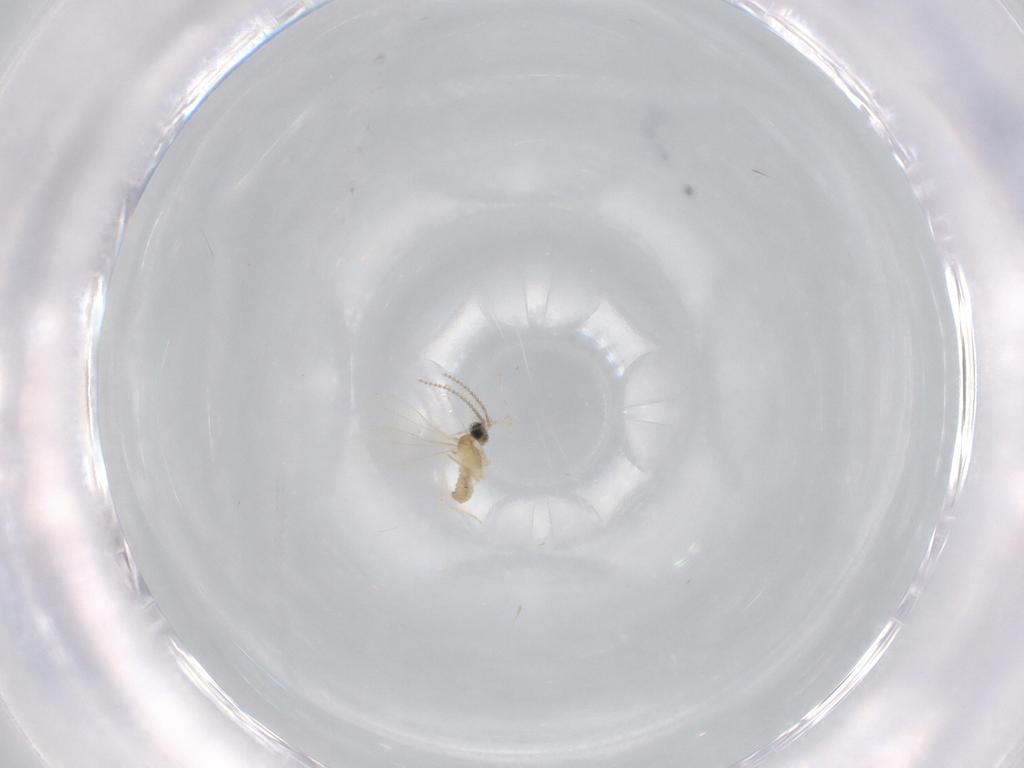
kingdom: Animalia
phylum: Arthropoda
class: Insecta
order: Diptera
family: Cecidomyiidae
